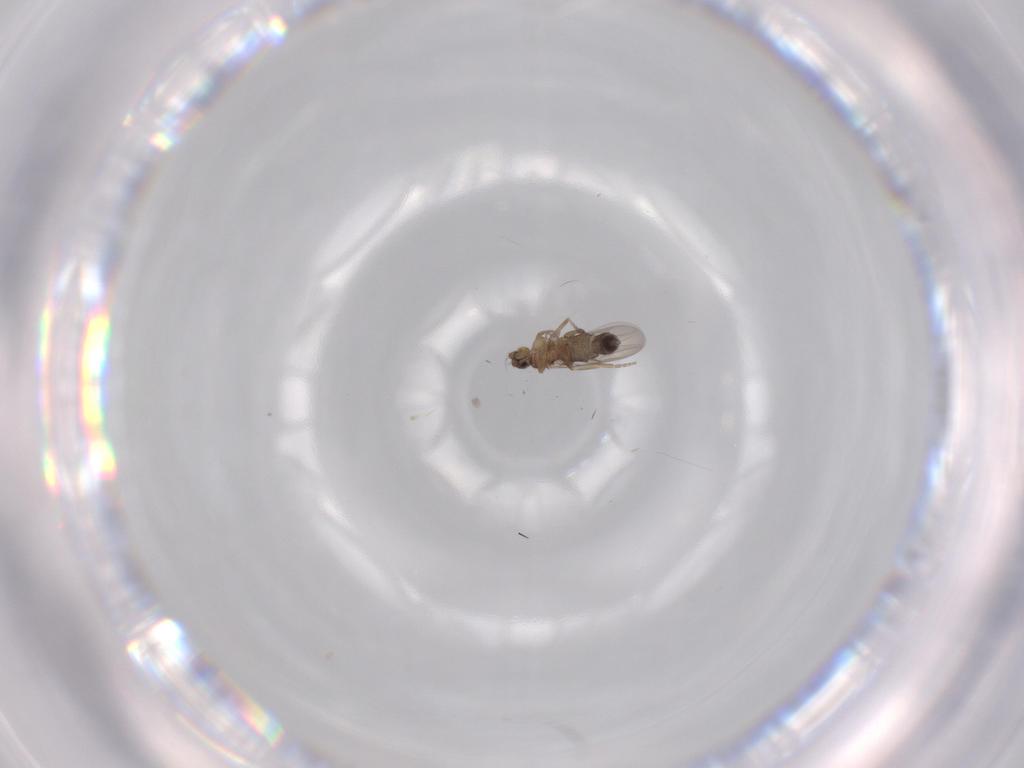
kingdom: Animalia
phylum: Arthropoda
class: Insecta
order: Diptera
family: Phoridae
